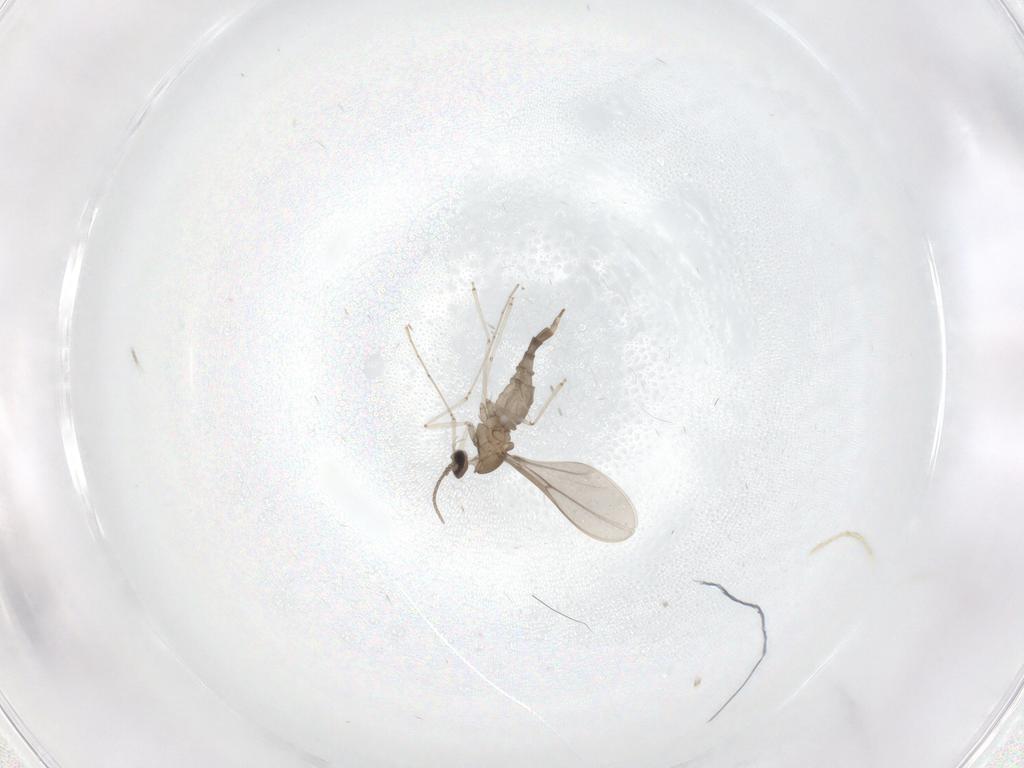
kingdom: Animalia
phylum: Arthropoda
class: Insecta
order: Diptera
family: Cecidomyiidae
